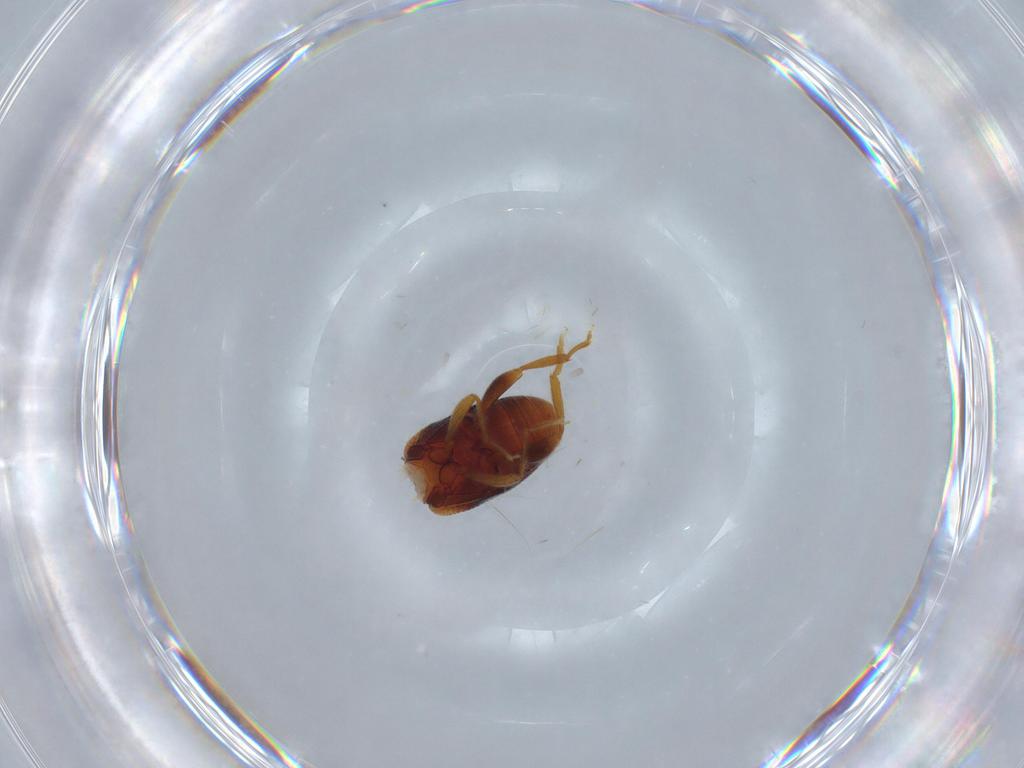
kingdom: Animalia
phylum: Arthropoda
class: Insecta
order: Coleoptera
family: Aderidae
